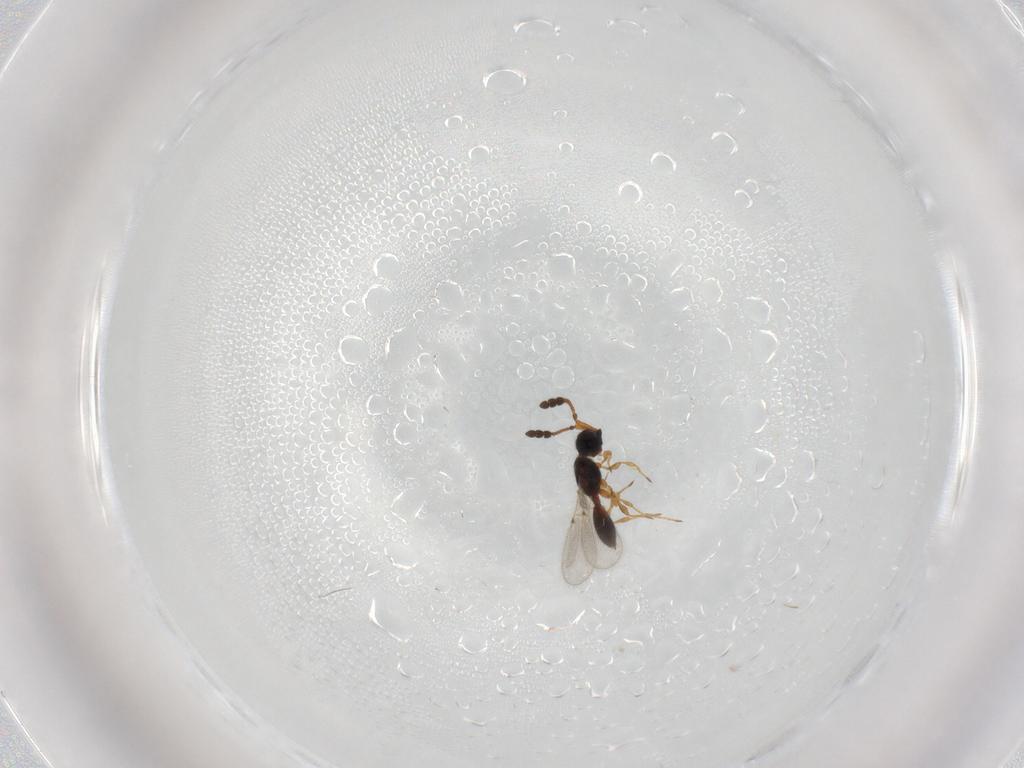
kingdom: Animalia
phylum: Arthropoda
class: Insecta
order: Hymenoptera
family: Diapriidae
